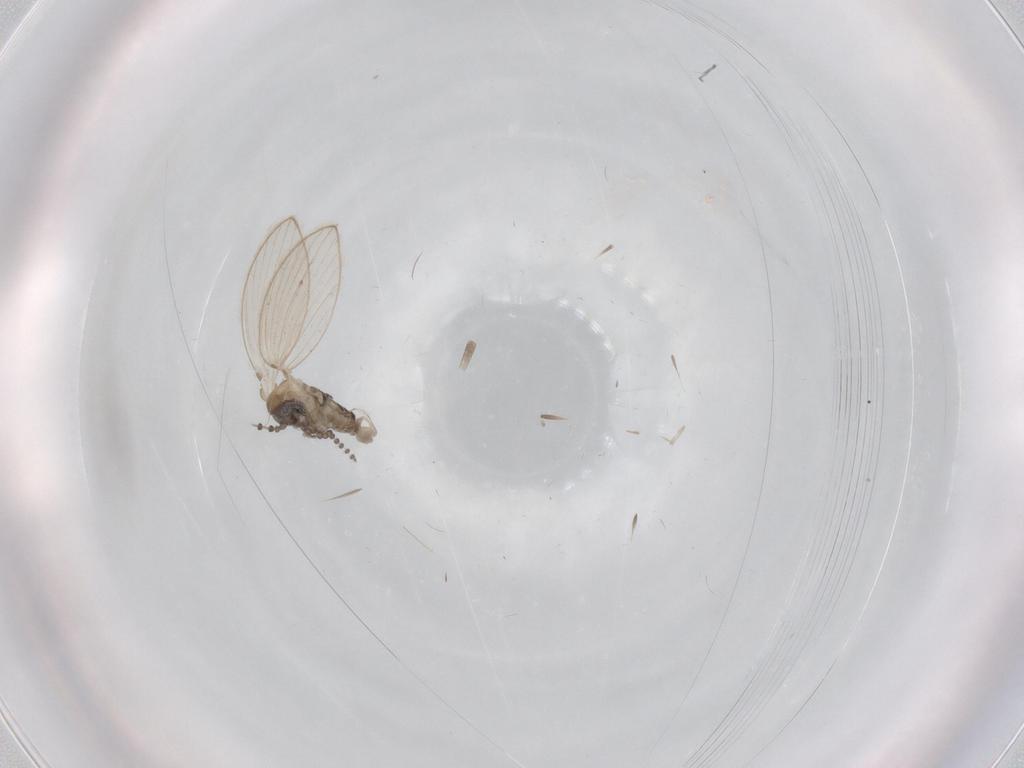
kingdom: Animalia
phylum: Arthropoda
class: Insecta
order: Diptera
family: Psychodidae
